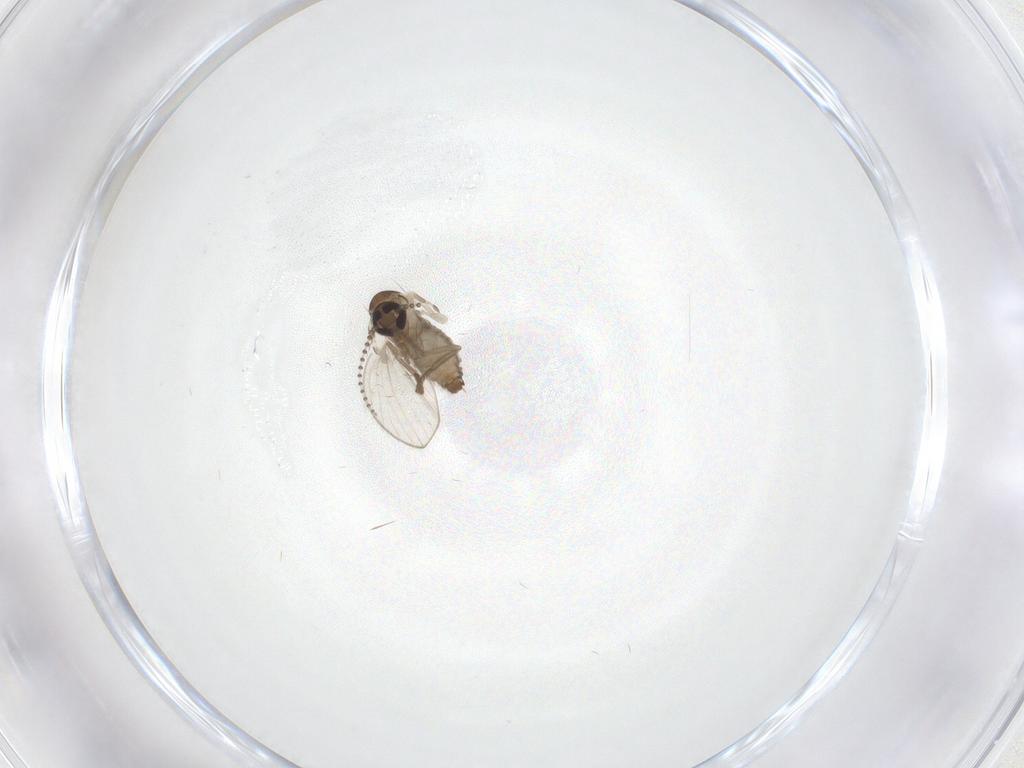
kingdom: Animalia
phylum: Arthropoda
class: Insecta
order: Diptera
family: Psychodidae
